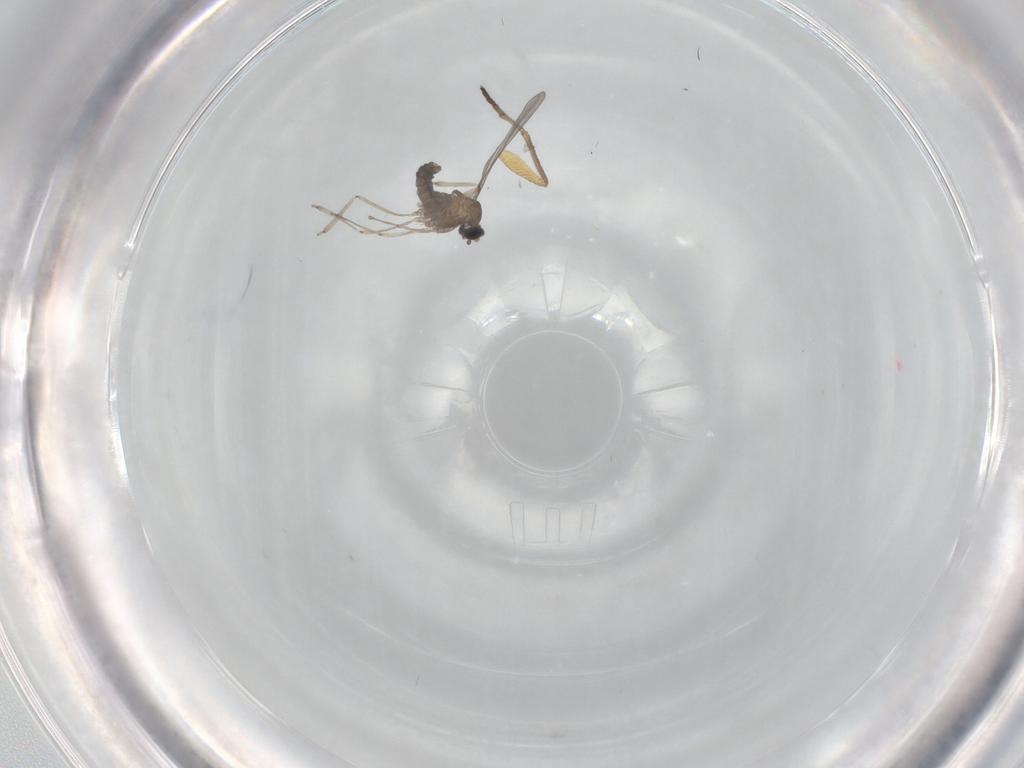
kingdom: Animalia
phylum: Arthropoda
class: Insecta
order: Diptera
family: Dolichopodidae
